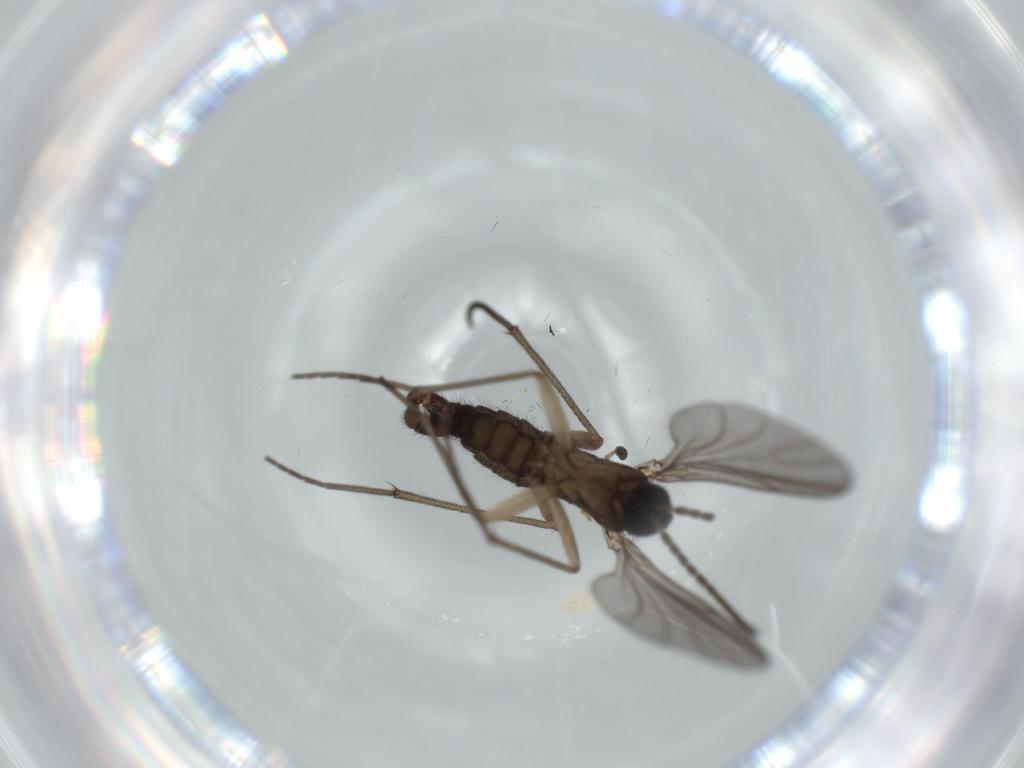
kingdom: Animalia
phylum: Arthropoda
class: Insecta
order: Diptera
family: Sciaridae
